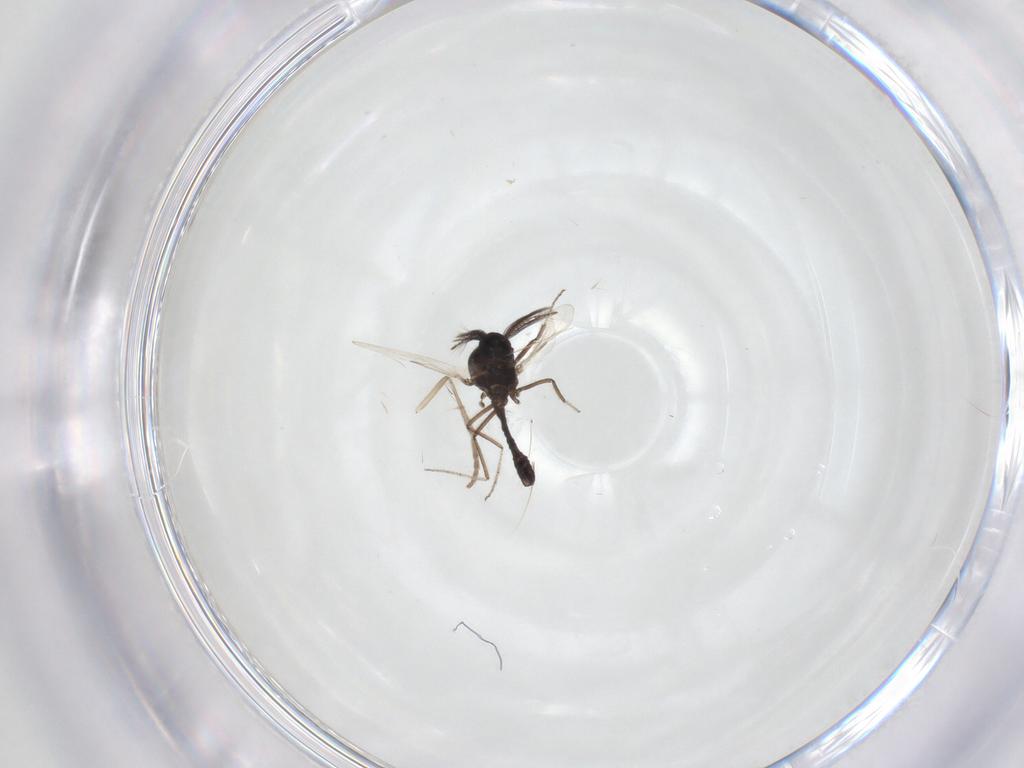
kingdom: Animalia
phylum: Arthropoda
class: Insecta
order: Diptera
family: Psychodidae
